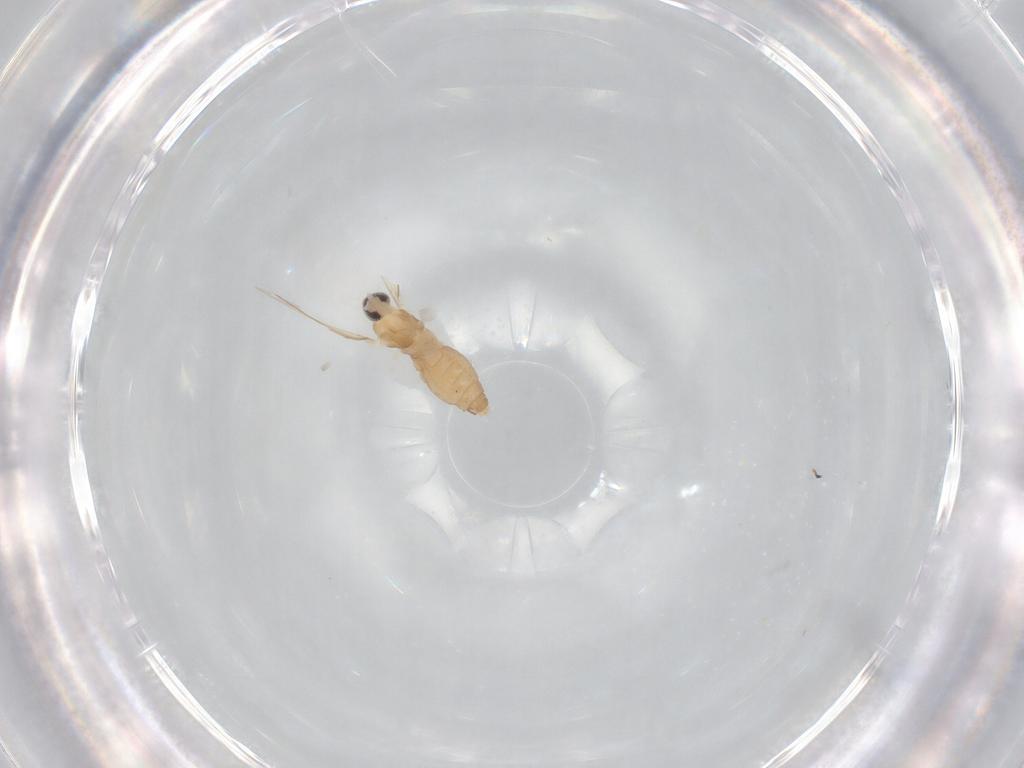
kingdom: Animalia
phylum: Arthropoda
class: Insecta
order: Diptera
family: Cecidomyiidae
